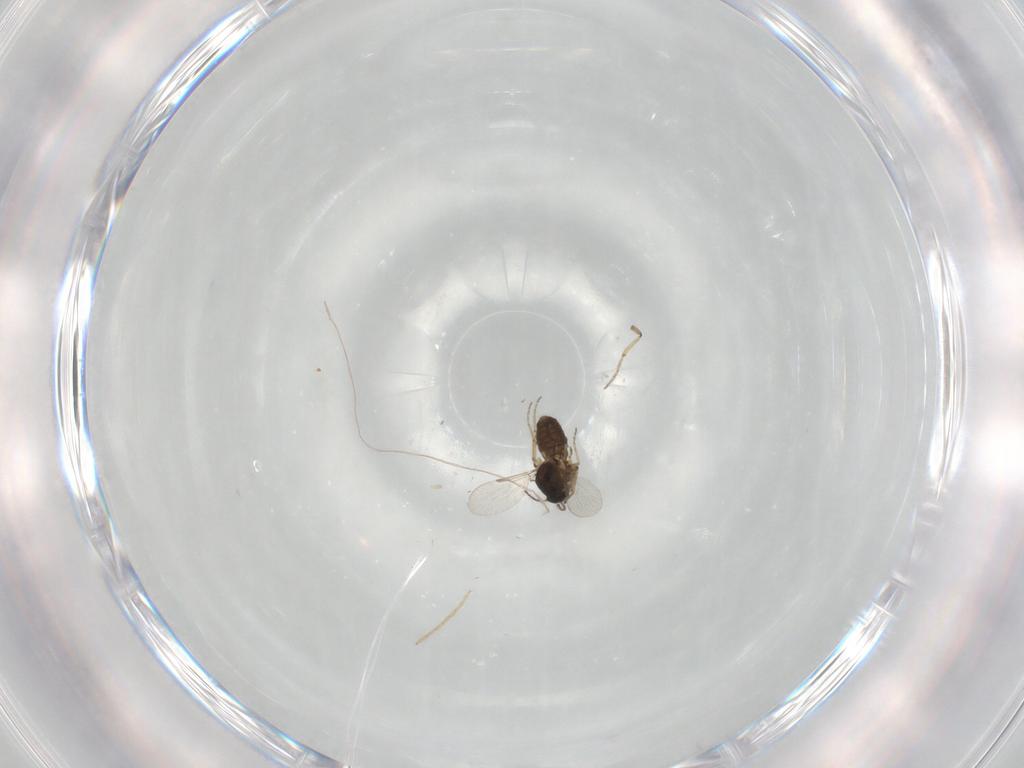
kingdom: Animalia
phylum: Arthropoda
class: Insecta
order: Diptera
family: Ceratopogonidae
